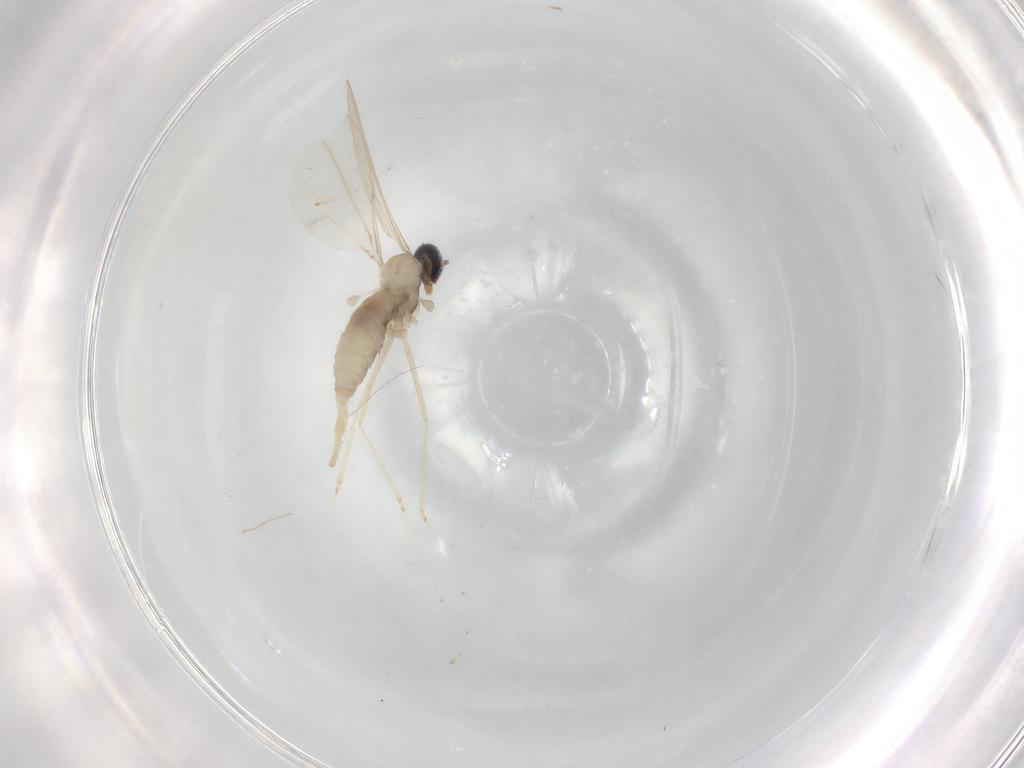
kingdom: Animalia
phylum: Arthropoda
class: Insecta
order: Diptera
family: Cecidomyiidae
